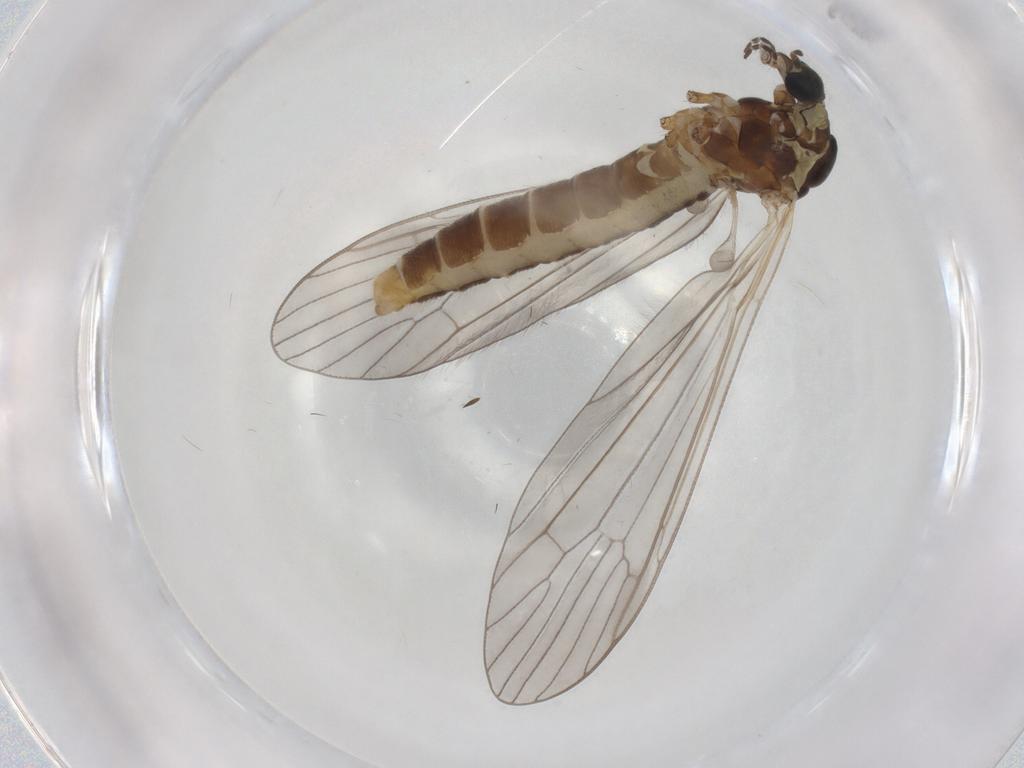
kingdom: Animalia
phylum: Arthropoda
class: Insecta
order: Diptera
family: Limoniidae
